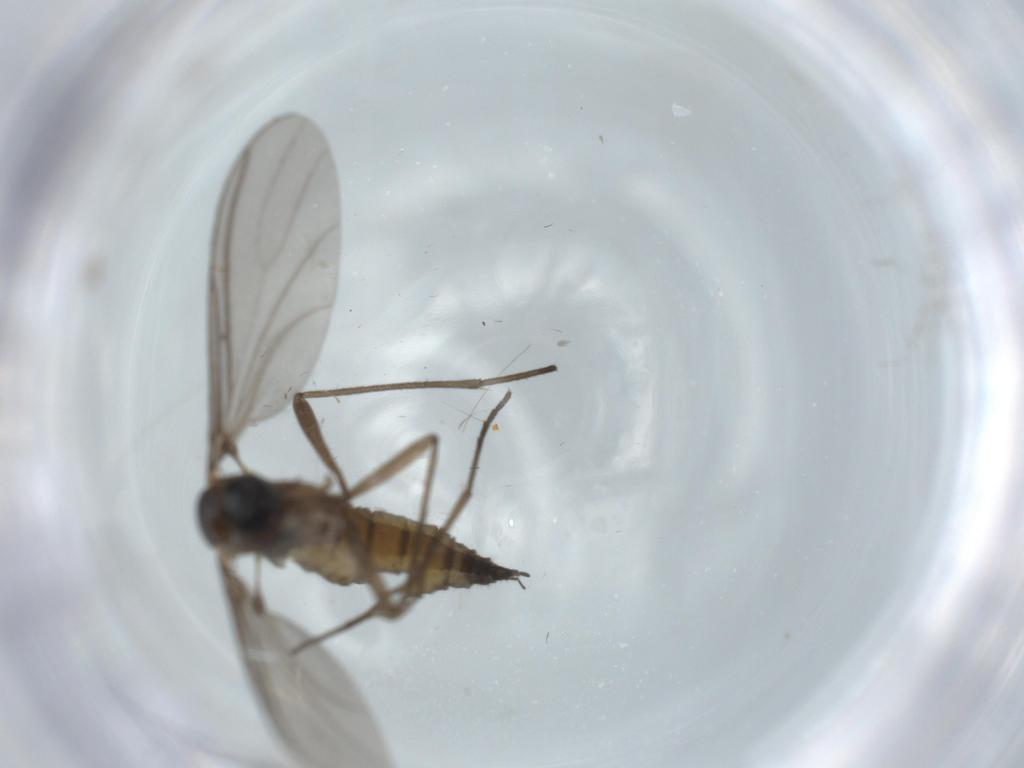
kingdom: Animalia
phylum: Arthropoda
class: Insecta
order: Diptera
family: Sciaridae
